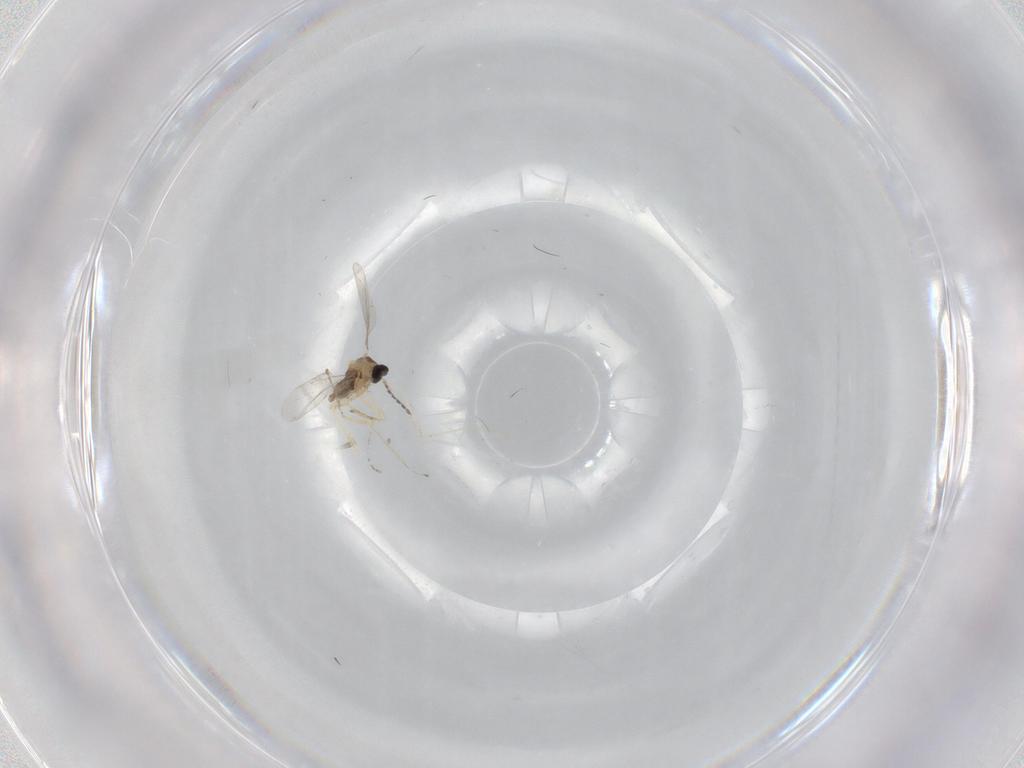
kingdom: Animalia
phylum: Arthropoda
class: Insecta
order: Diptera
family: Cecidomyiidae
